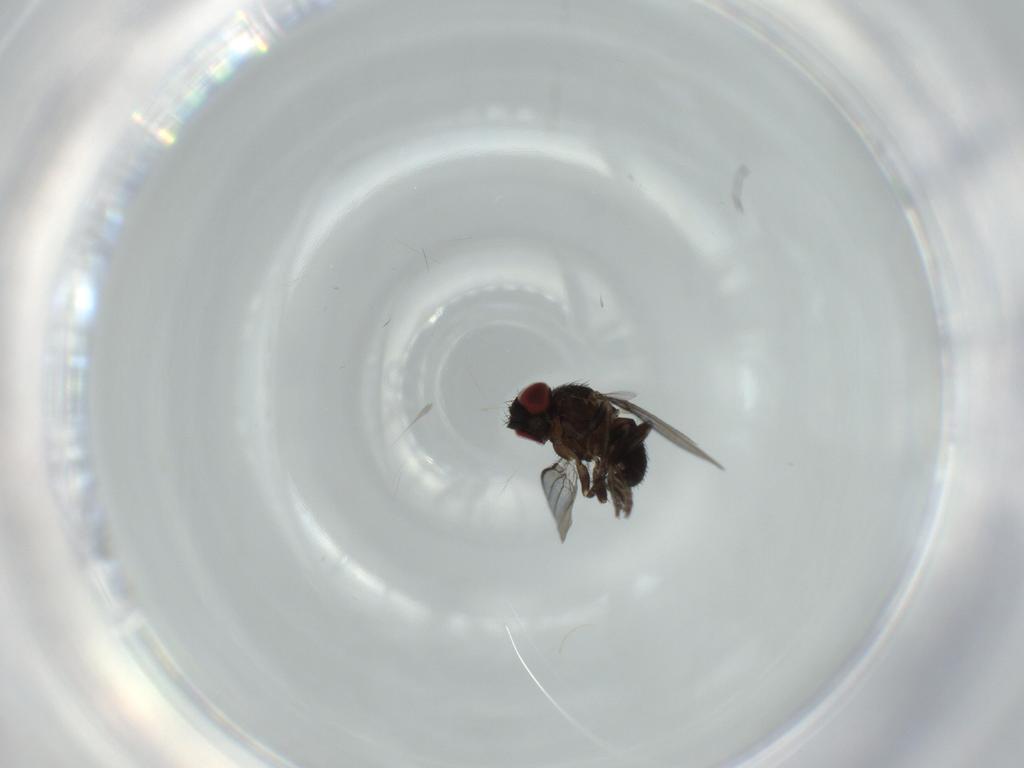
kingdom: Animalia
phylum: Arthropoda
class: Insecta
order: Diptera
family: Milichiidae
